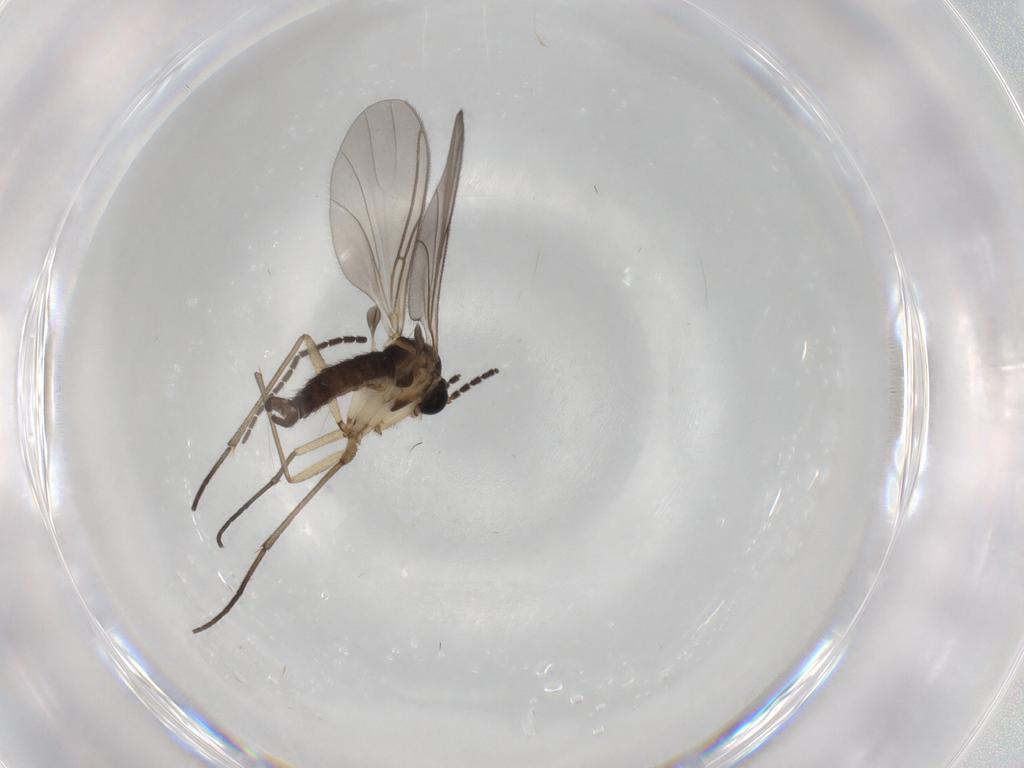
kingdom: Animalia
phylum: Arthropoda
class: Insecta
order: Diptera
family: Sciaridae
